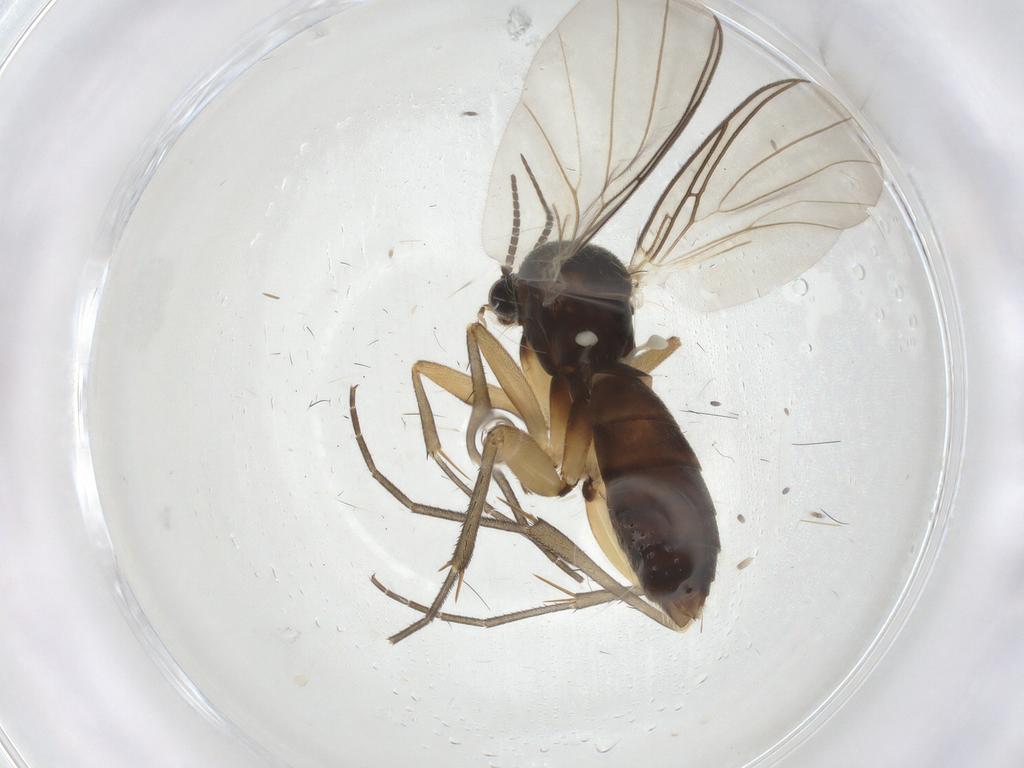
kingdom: Animalia
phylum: Arthropoda
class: Insecta
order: Diptera
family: Mycetophilidae
